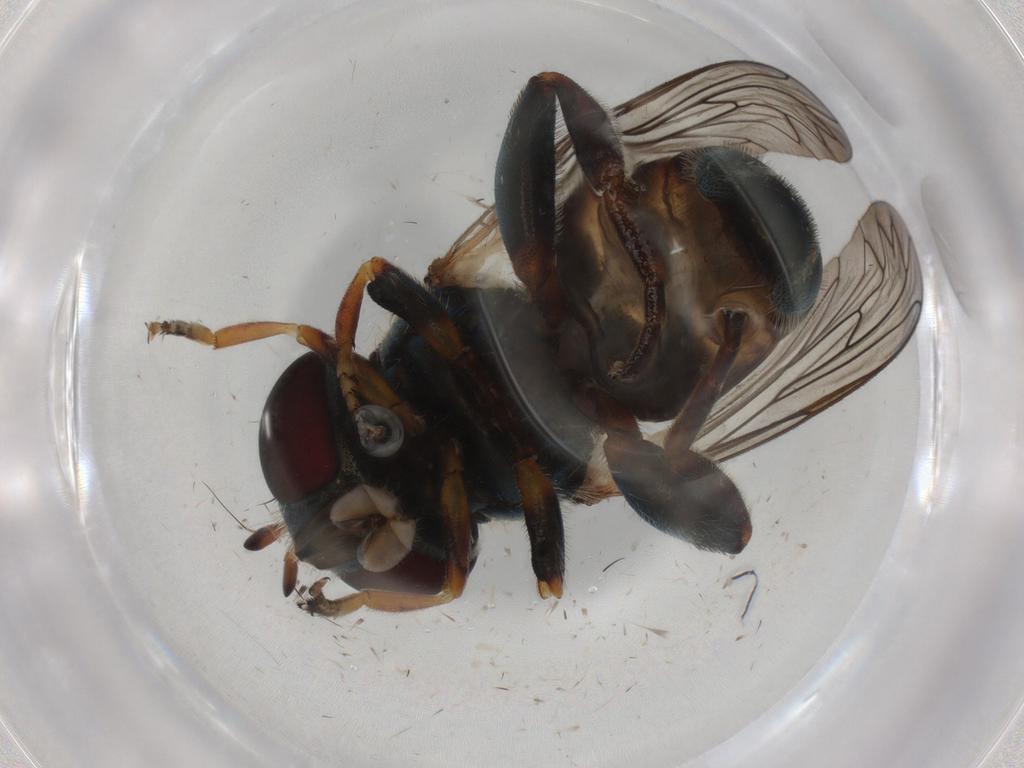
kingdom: Animalia
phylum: Arthropoda
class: Insecta
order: Diptera
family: Syrphidae
